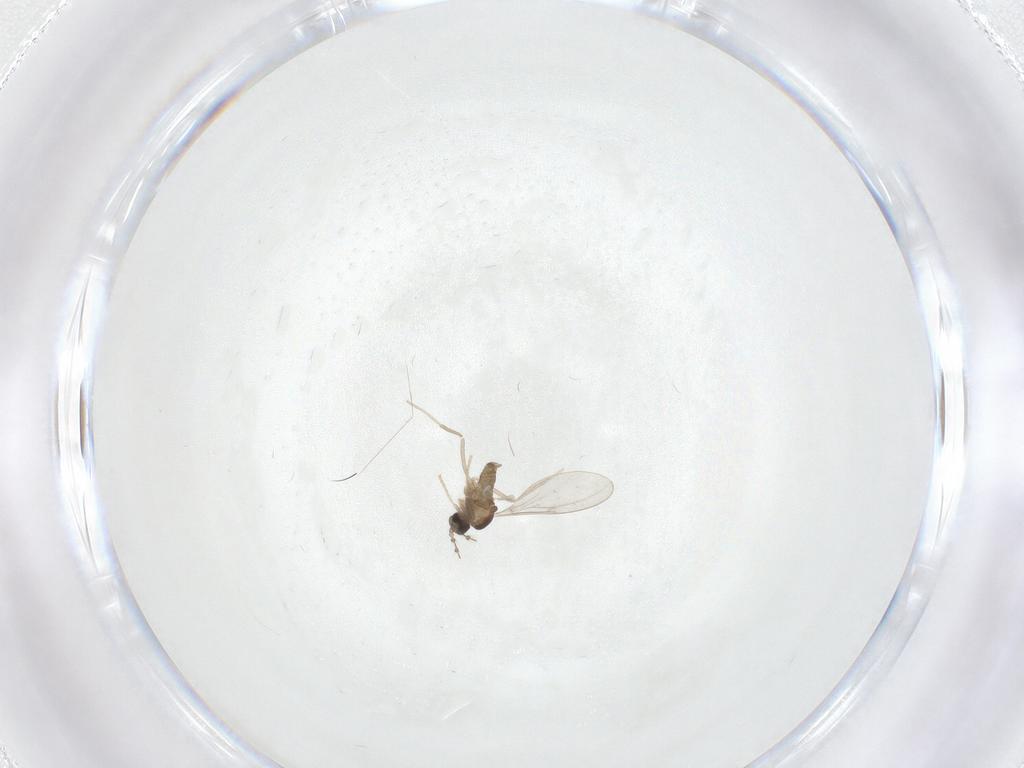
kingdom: Animalia
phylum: Arthropoda
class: Insecta
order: Diptera
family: Cecidomyiidae
